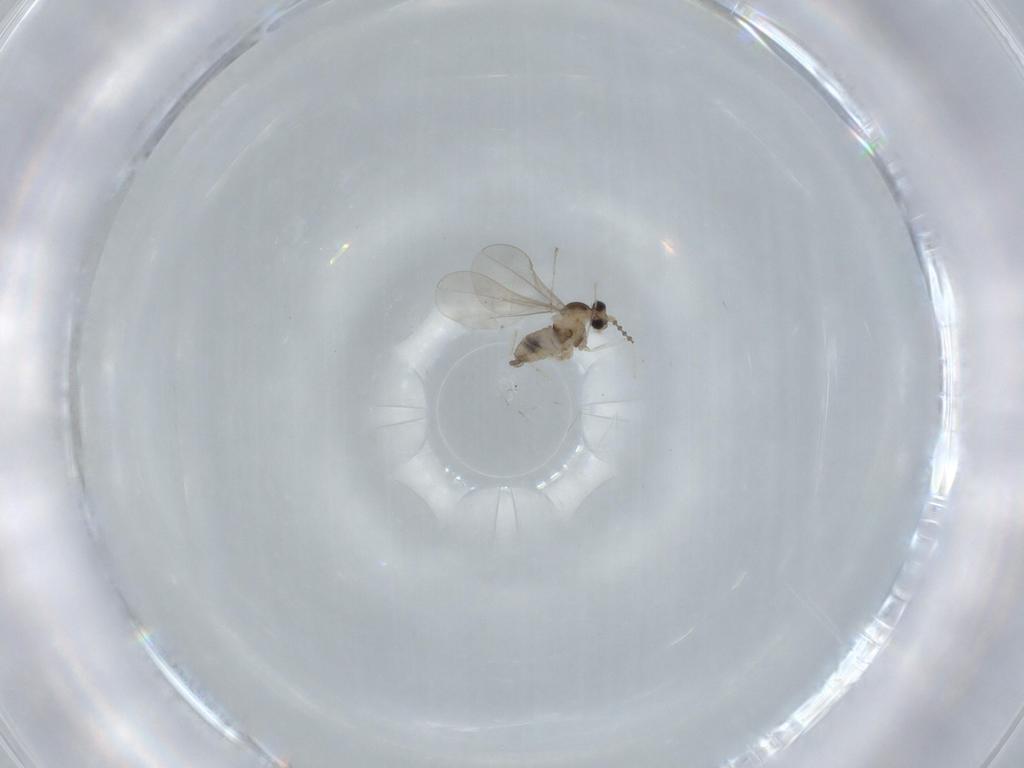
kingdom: Animalia
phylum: Arthropoda
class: Insecta
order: Diptera
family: Cecidomyiidae
